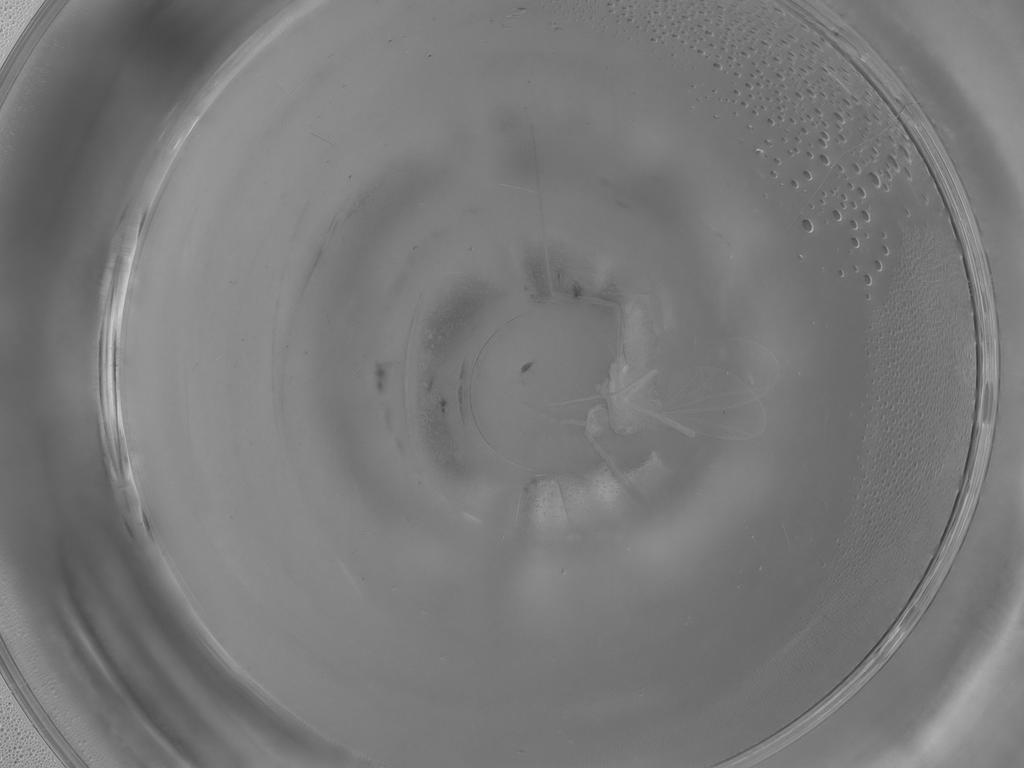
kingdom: Animalia
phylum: Arthropoda
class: Insecta
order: Diptera
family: Cecidomyiidae
